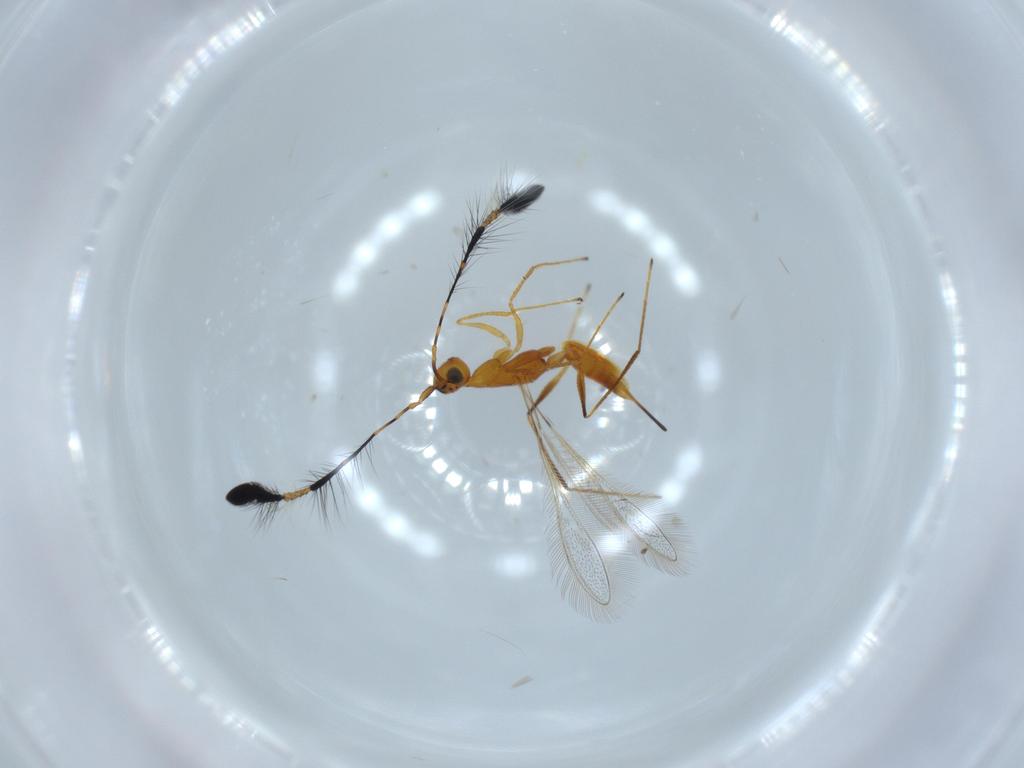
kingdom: Animalia
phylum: Arthropoda
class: Insecta
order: Hymenoptera
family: Mymaridae
